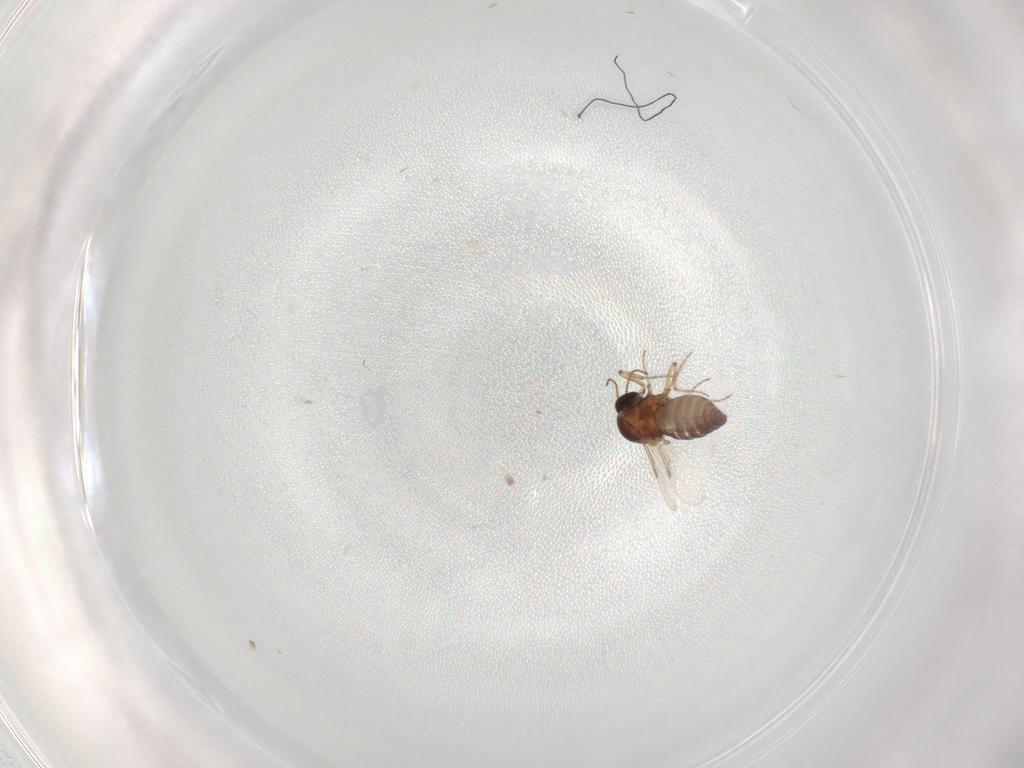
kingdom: Animalia
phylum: Arthropoda
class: Insecta
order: Diptera
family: Ceratopogonidae
